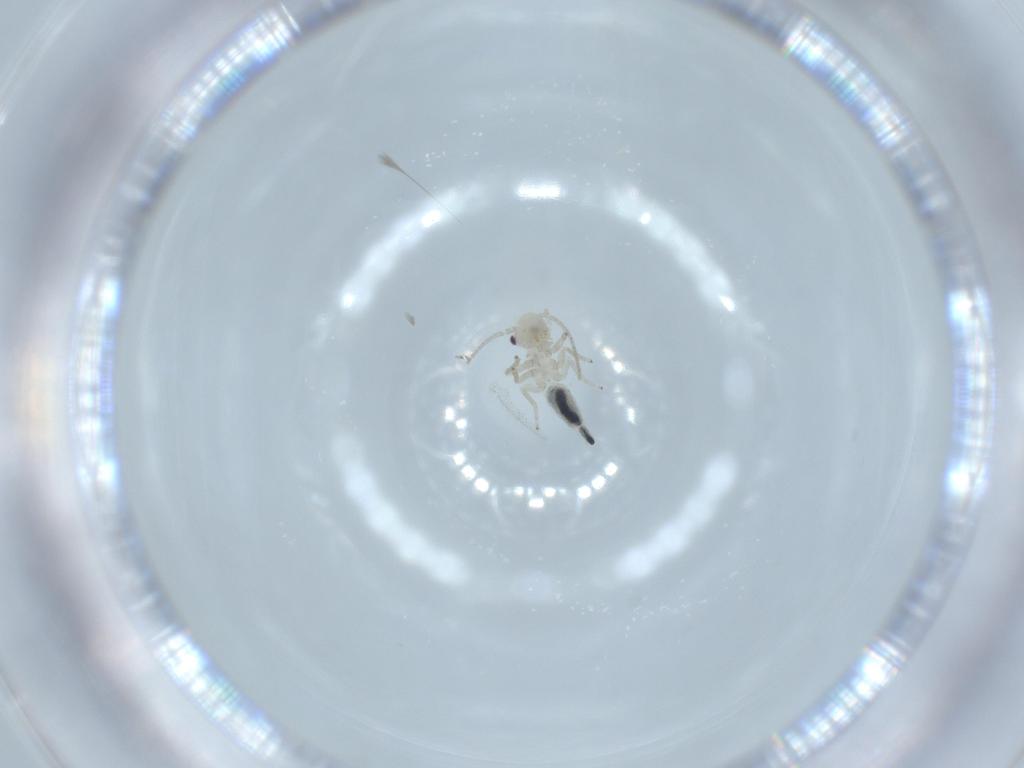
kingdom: Animalia
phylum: Arthropoda
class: Insecta
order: Psocodea
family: Caeciliusidae
